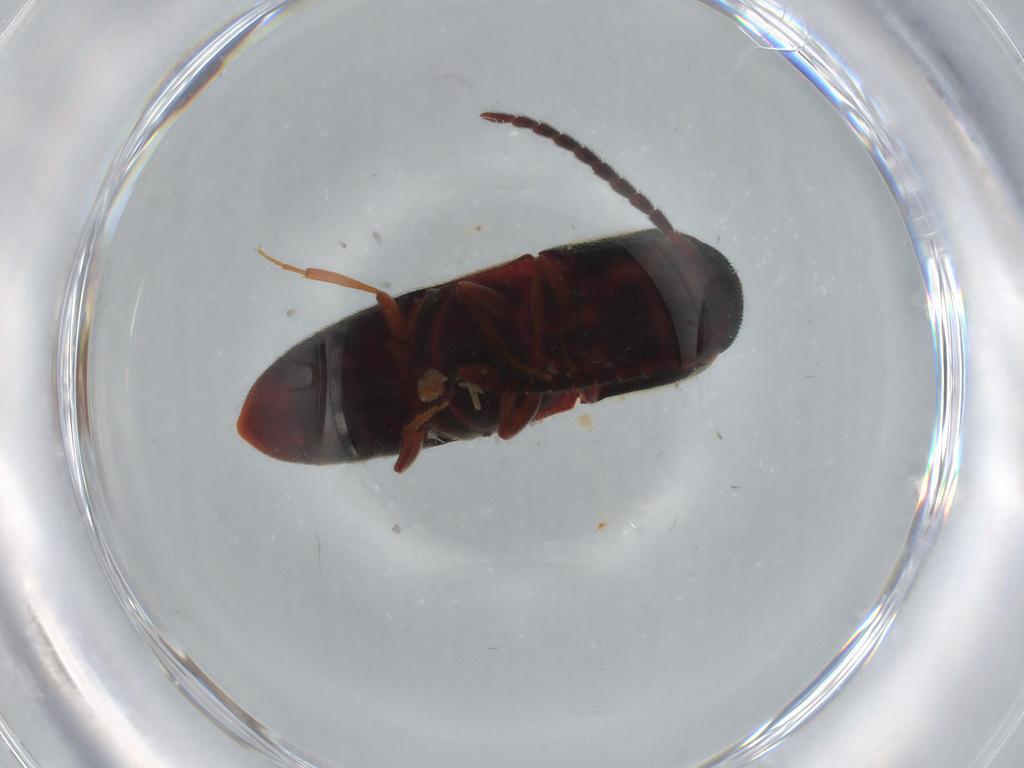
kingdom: Animalia
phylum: Arthropoda
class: Insecta
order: Coleoptera
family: Eucnemidae
